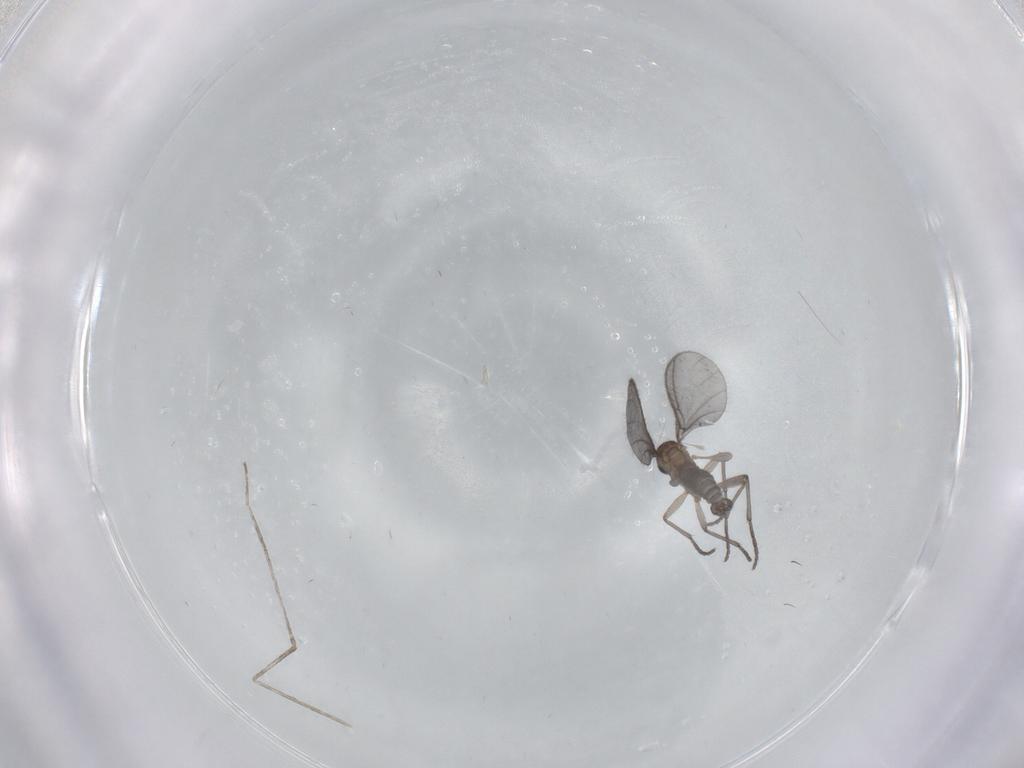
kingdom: Animalia
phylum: Arthropoda
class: Insecta
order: Diptera
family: Sciaridae
